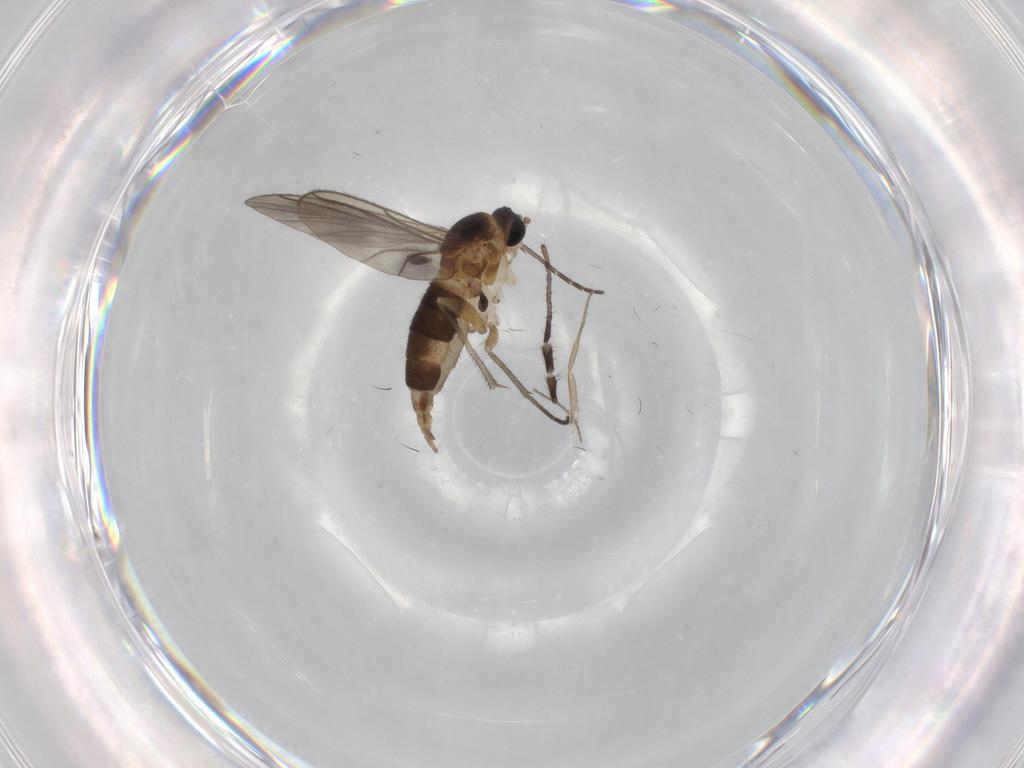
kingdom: Animalia
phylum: Arthropoda
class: Insecta
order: Diptera
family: Sciaridae
